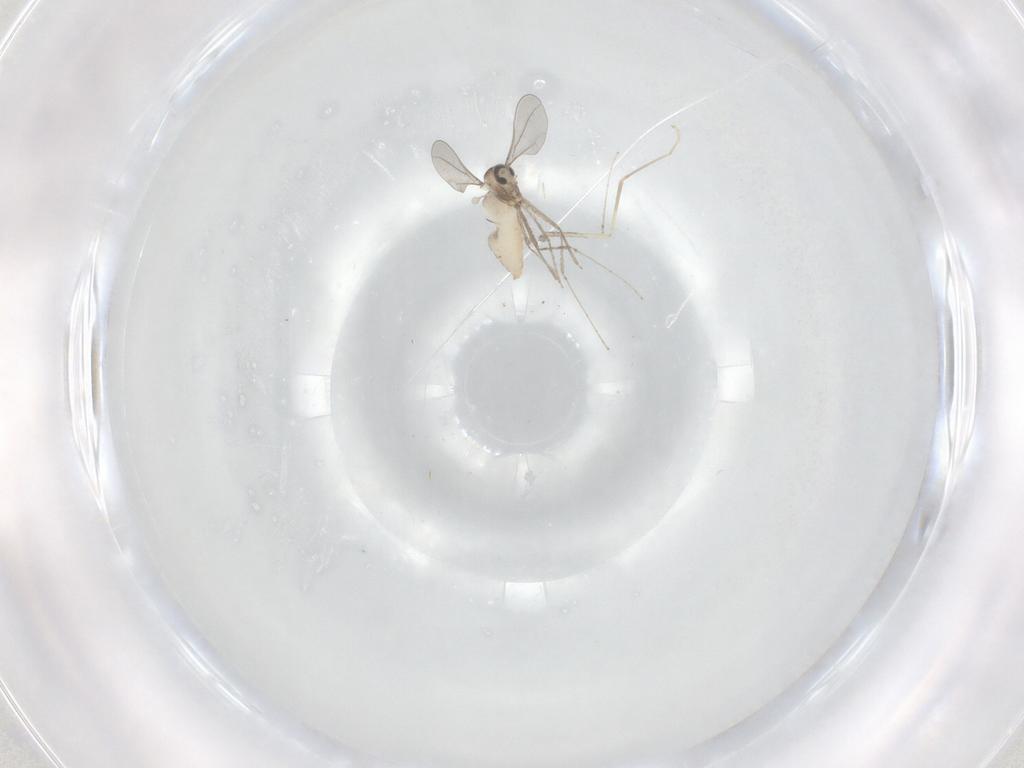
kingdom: Animalia
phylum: Arthropoda
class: Insecta
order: Diptera
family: Cecidomyiidae
